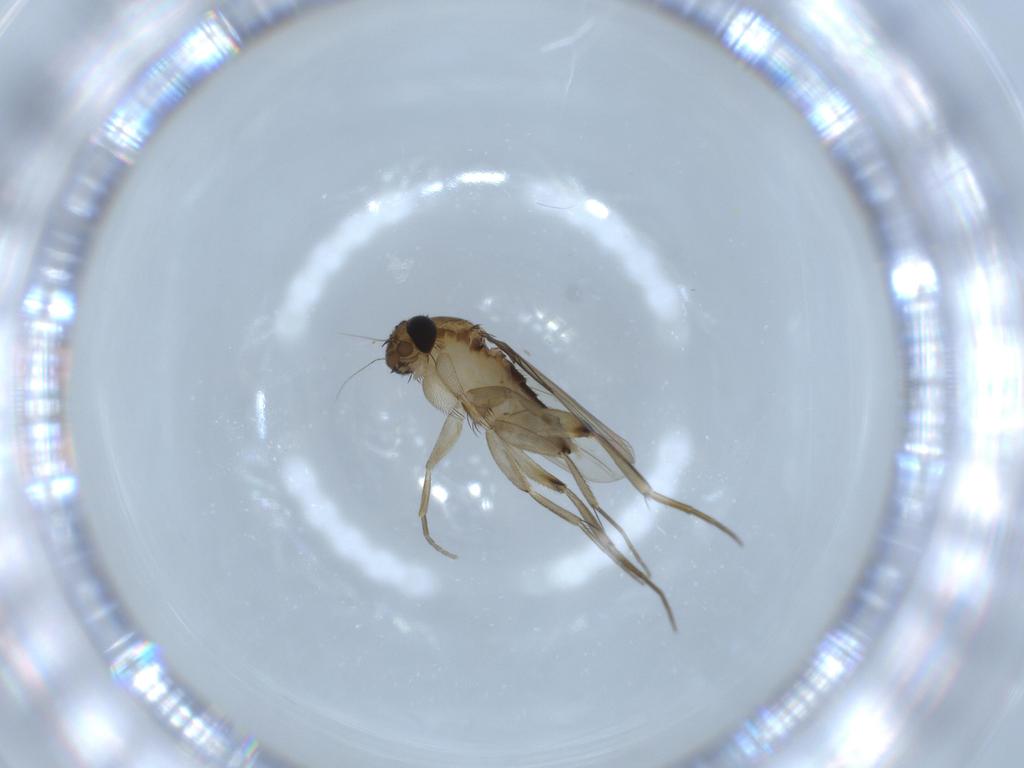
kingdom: Animalia
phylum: Arthropoda
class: Insecta
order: Diptera
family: Phoridae
